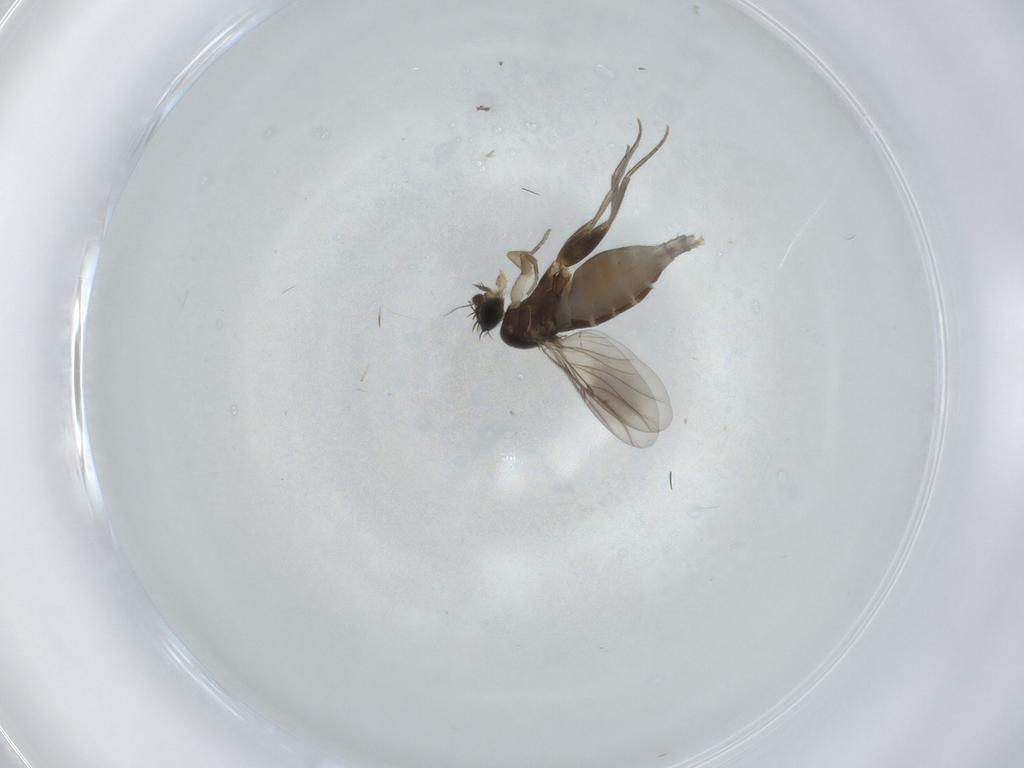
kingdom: Animalia
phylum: Arthropoda
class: Insecta
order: Diptera
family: Phoridae
